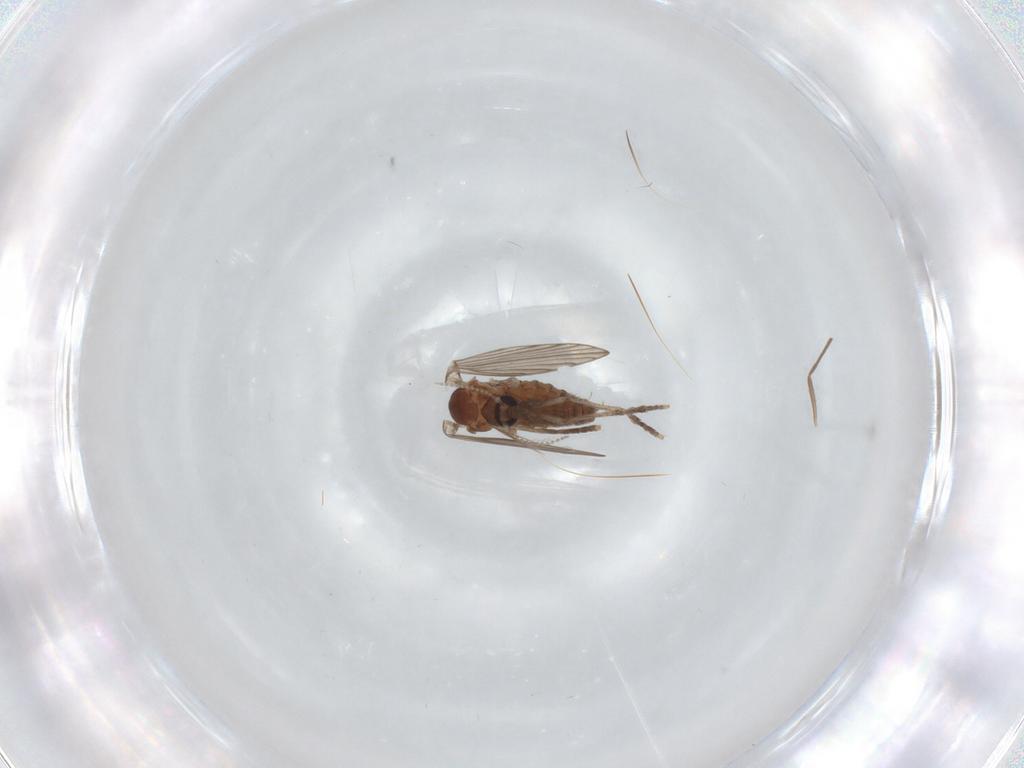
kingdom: Animalia
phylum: Arthropoda
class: Insecta
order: Diptera
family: Psychodidae
